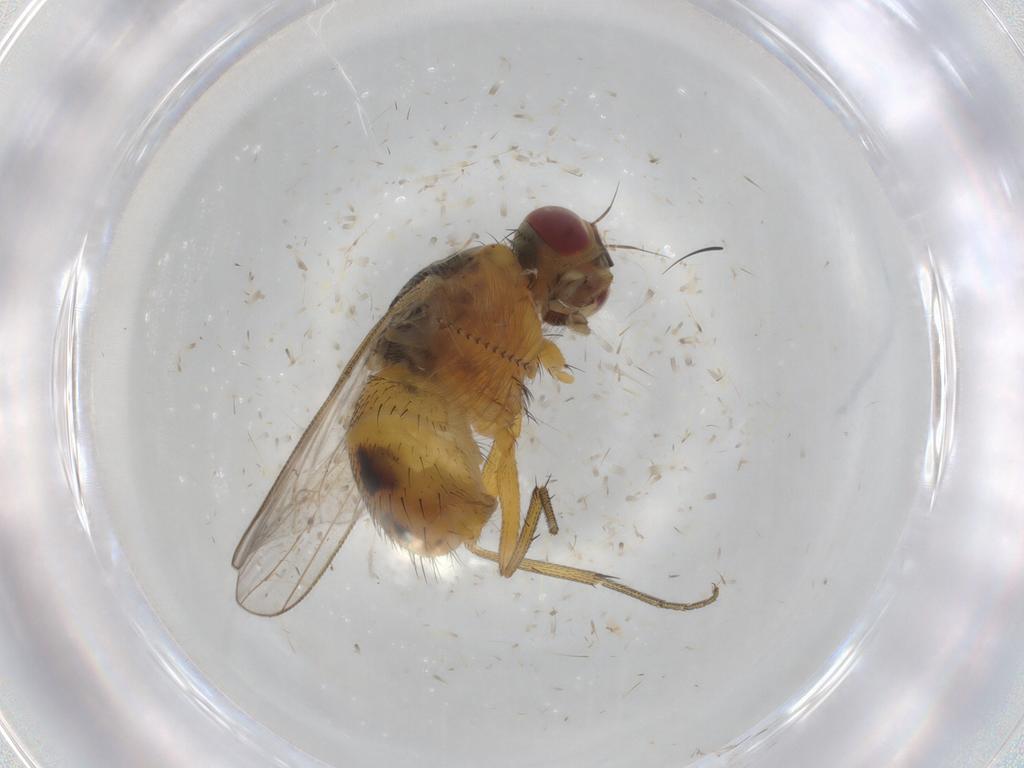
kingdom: Animalia
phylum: Arthropoda
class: Insecta
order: Diptera
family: Muscidae
